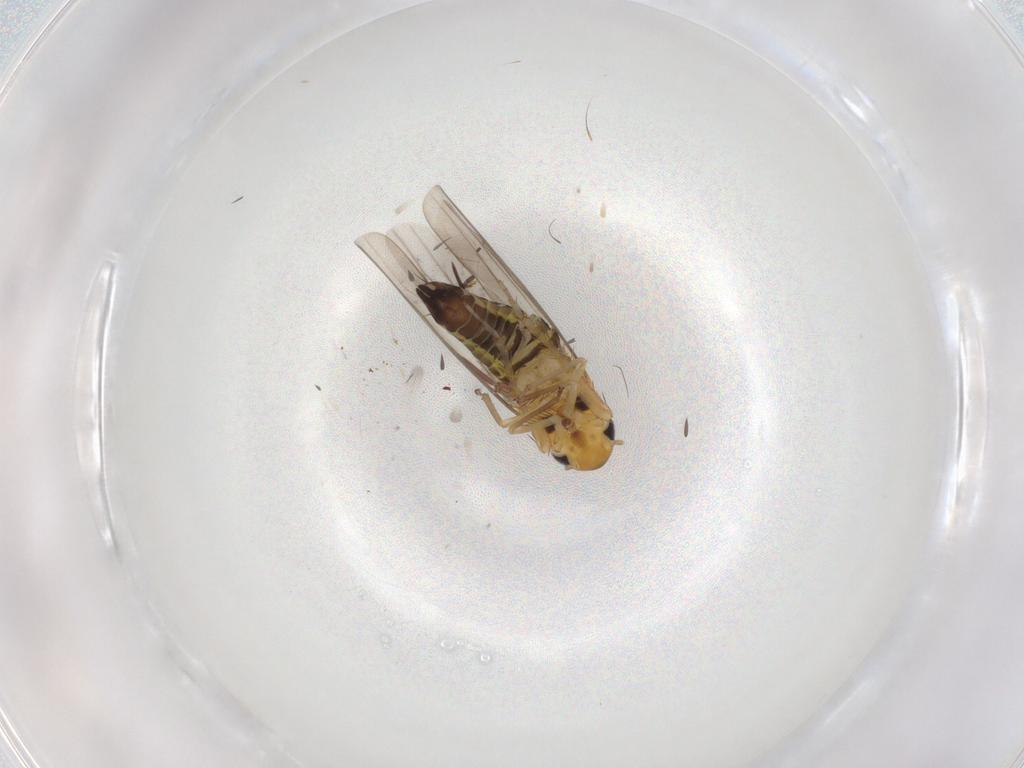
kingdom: Animalia
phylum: Arthropoda
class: Insecta
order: Hemiptera
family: Cicadellidae
